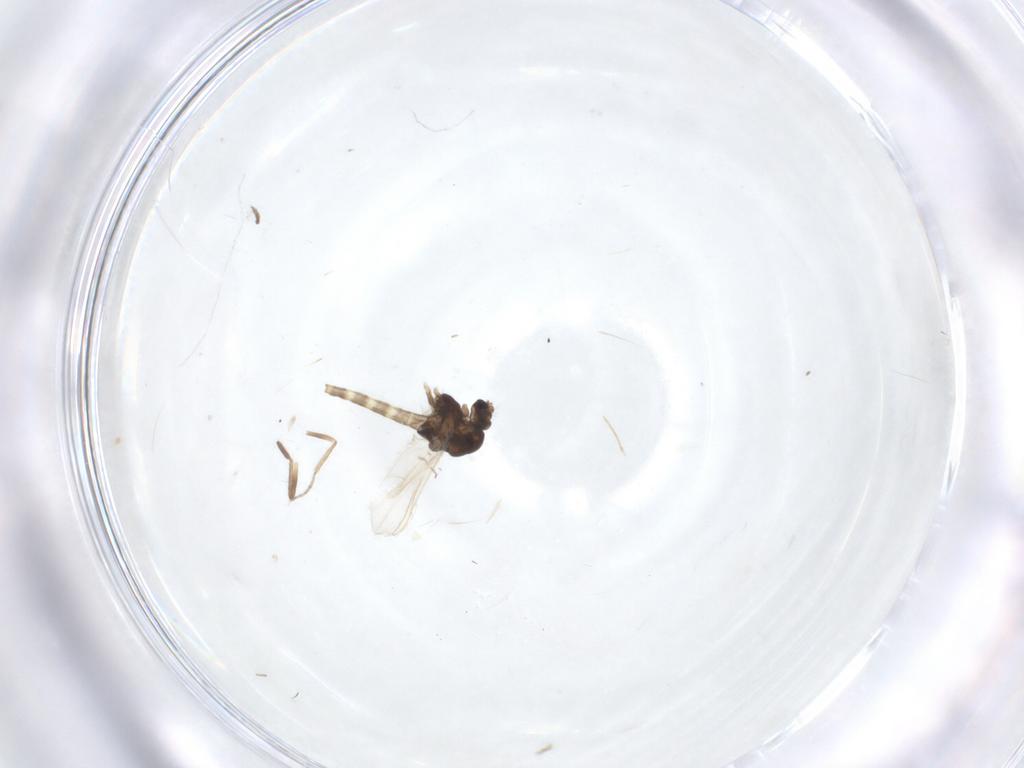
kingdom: Animalia
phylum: Arthropoda
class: Insecta
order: Diptera
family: Ceratopogonidae
